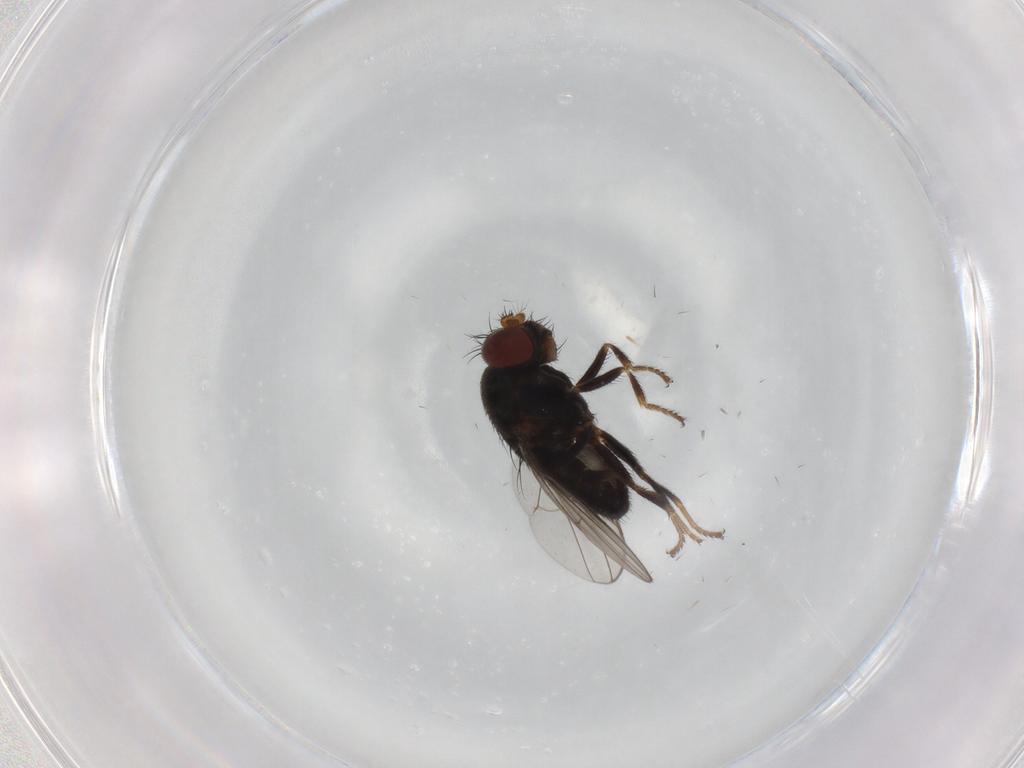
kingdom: Animalia
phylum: Arthropoda
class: Insecta
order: Diptera
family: Ephydridae
